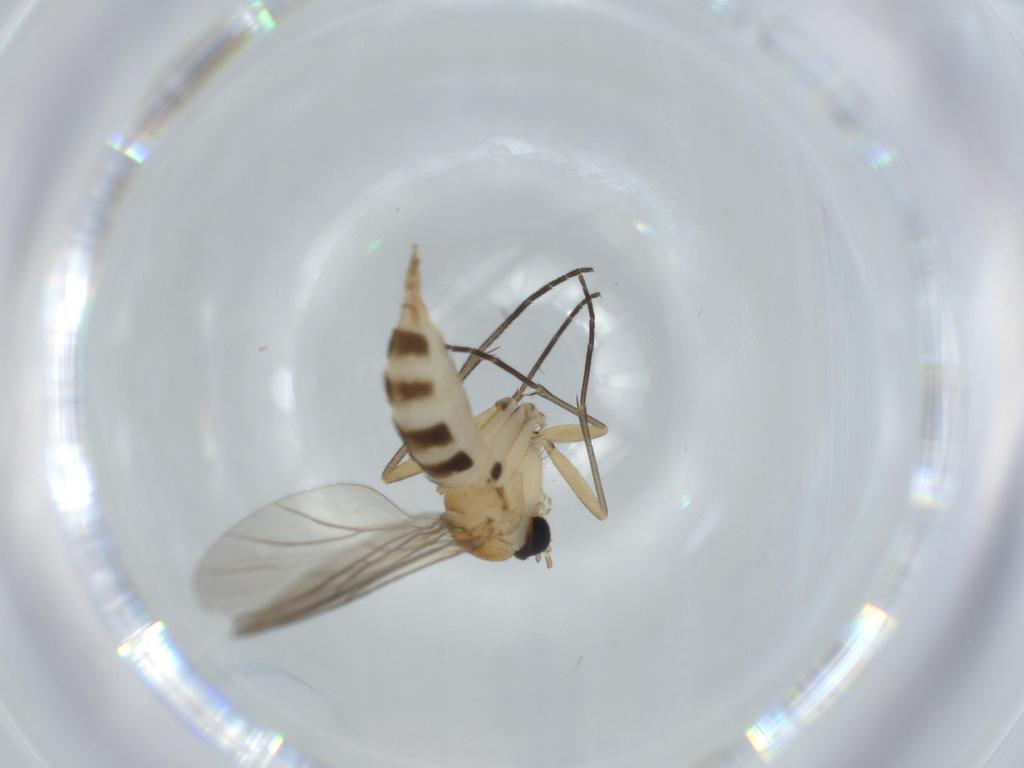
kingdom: Animalia
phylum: Arthropoda
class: Insecta
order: Diptera
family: Sciaridae
